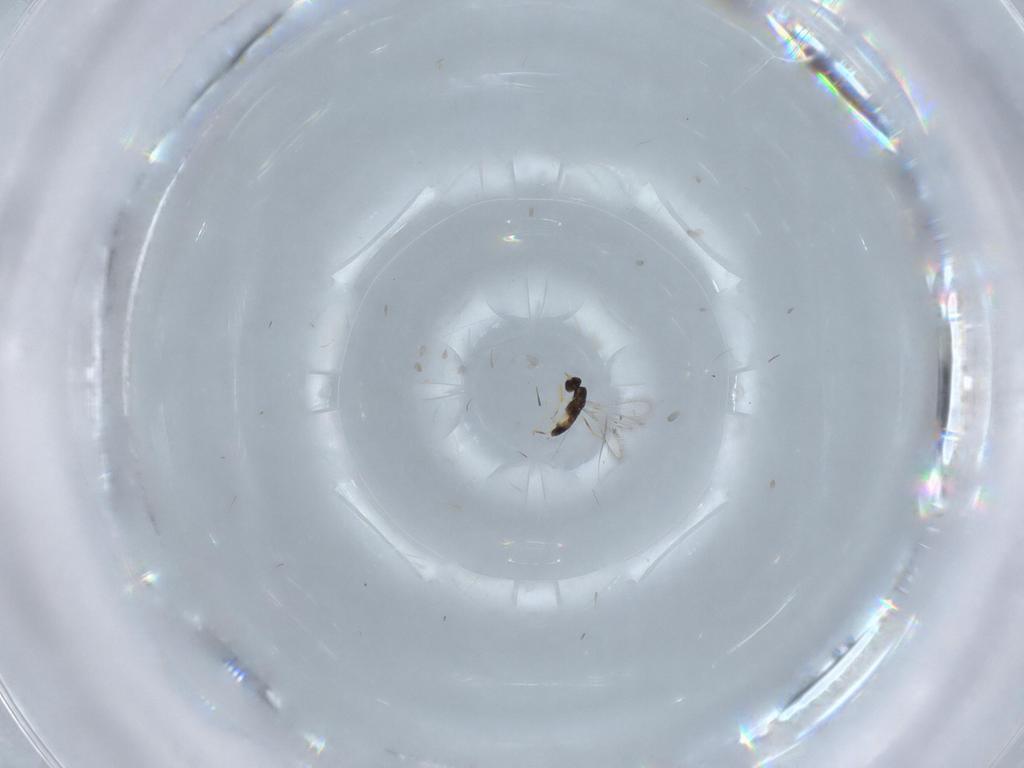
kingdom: Animalia
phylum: Arthropoda
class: Insecta
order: Hymenoptera
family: Mymaridae
